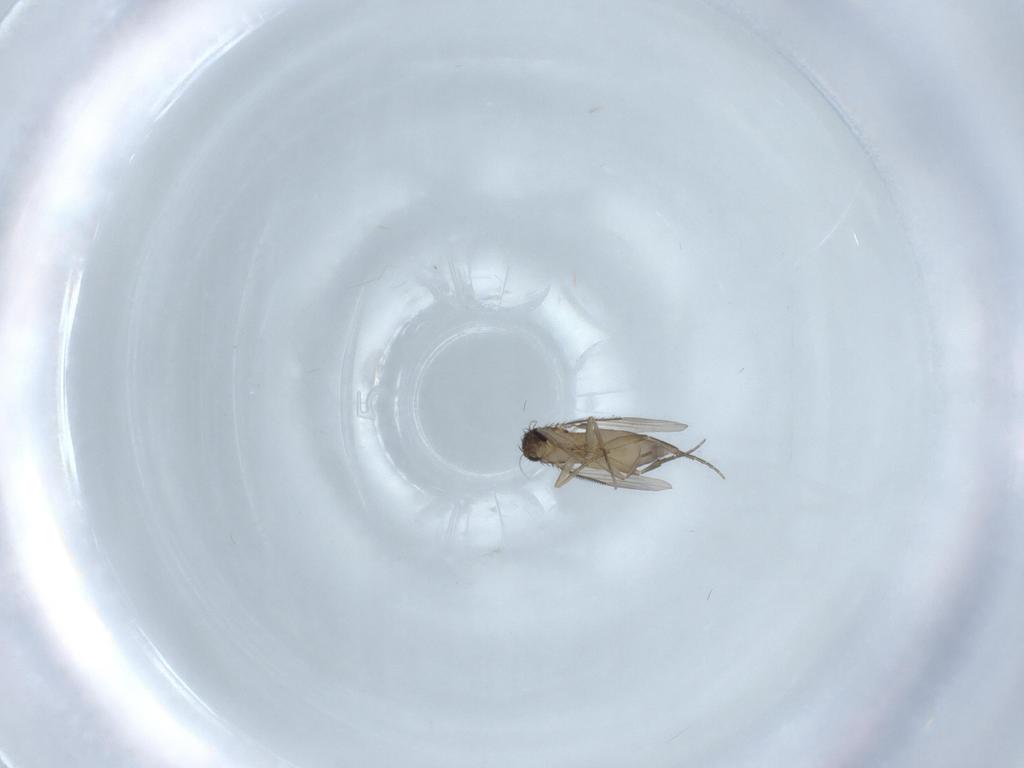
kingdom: Animalia
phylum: Arthropoda
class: Insecta
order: Diptera
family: Phoridae
